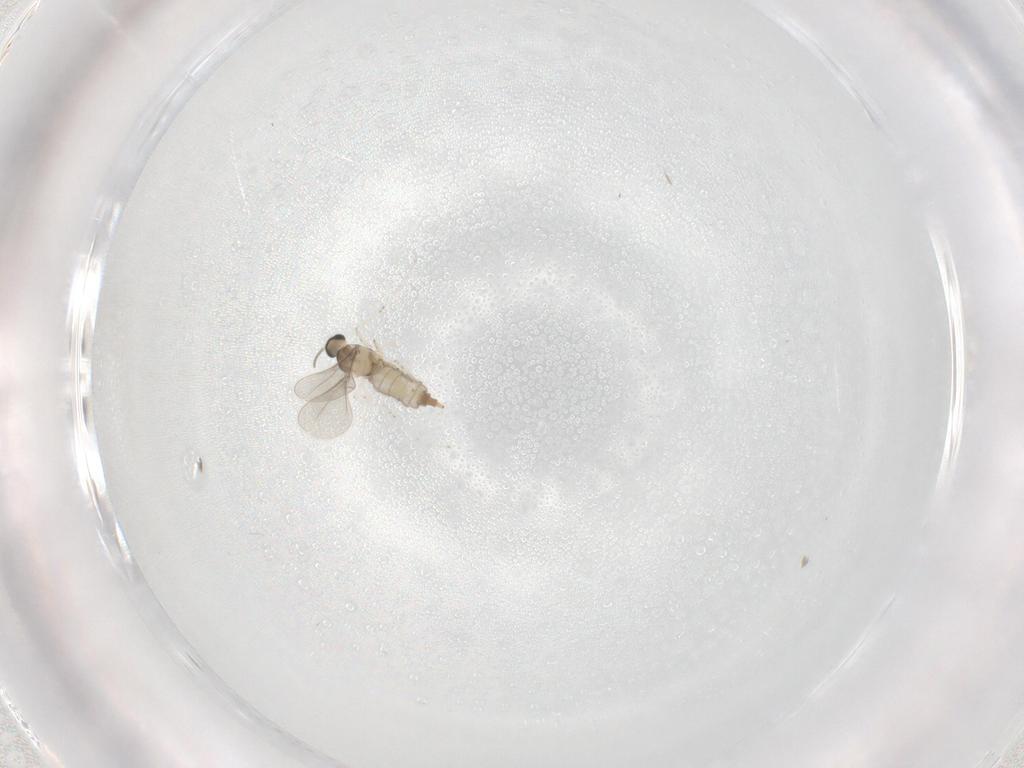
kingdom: Animalia
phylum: Arthropoda
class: Insecta
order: Diptera
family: Cecidomyiidae
